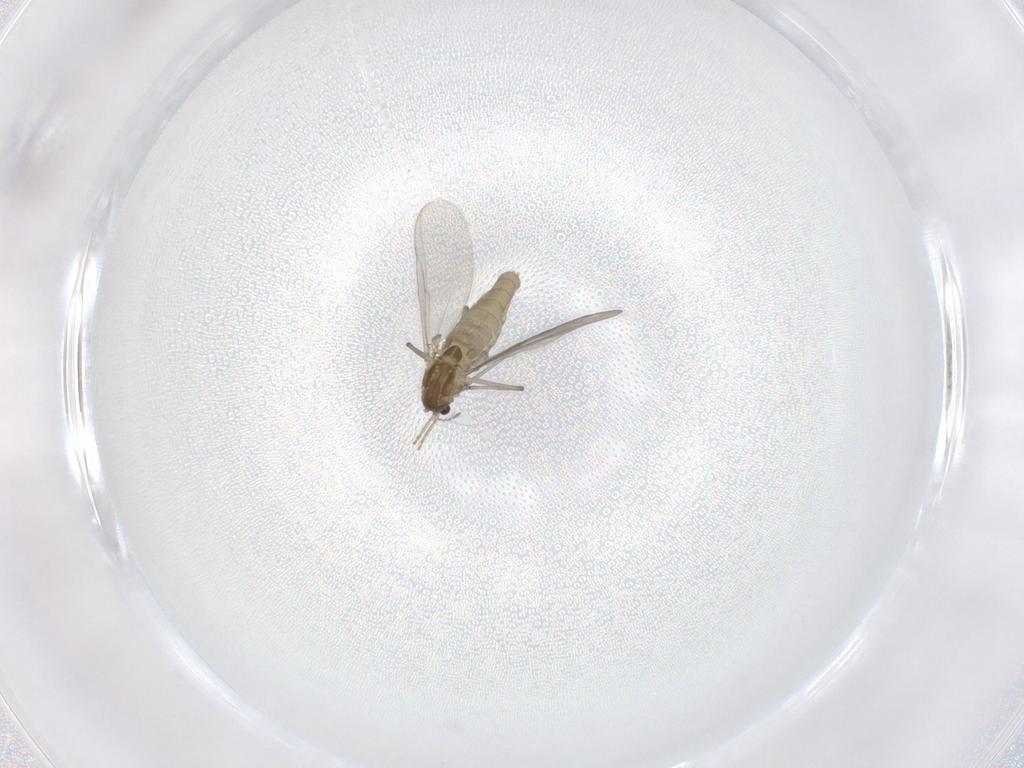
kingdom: Animalia
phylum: Arthropoda
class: Insecta
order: Diptera
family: Chironomidae
